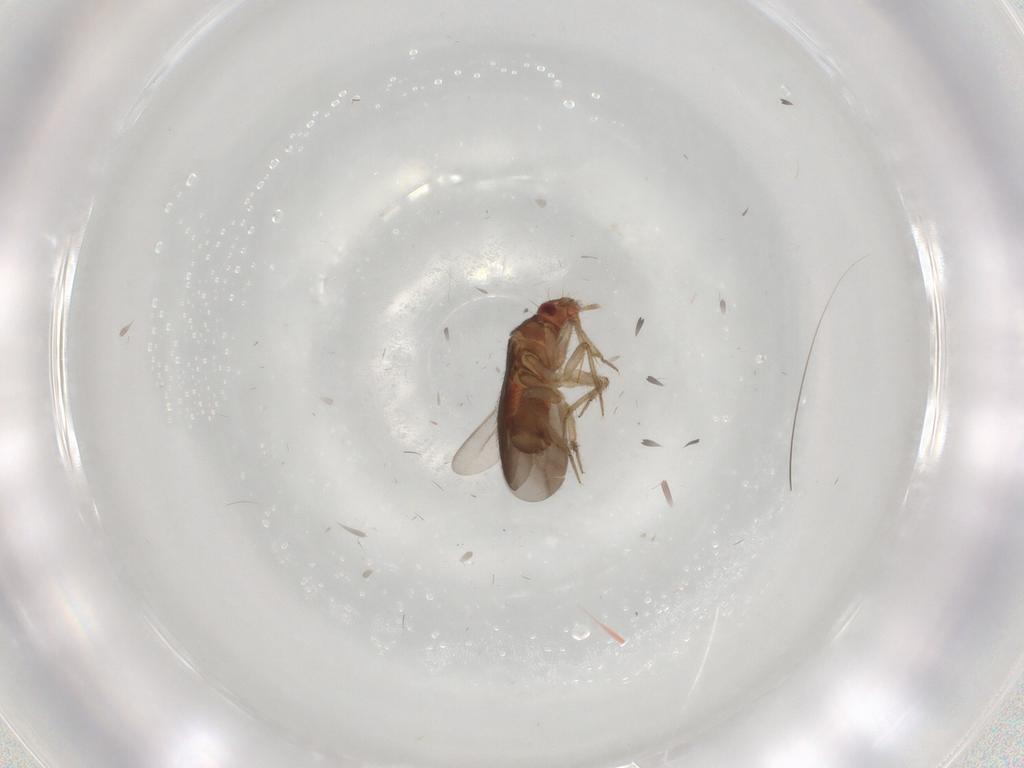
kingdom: Animalia
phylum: Arthropoda
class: Insecta
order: Hemiptera
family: Ceratocombidae
